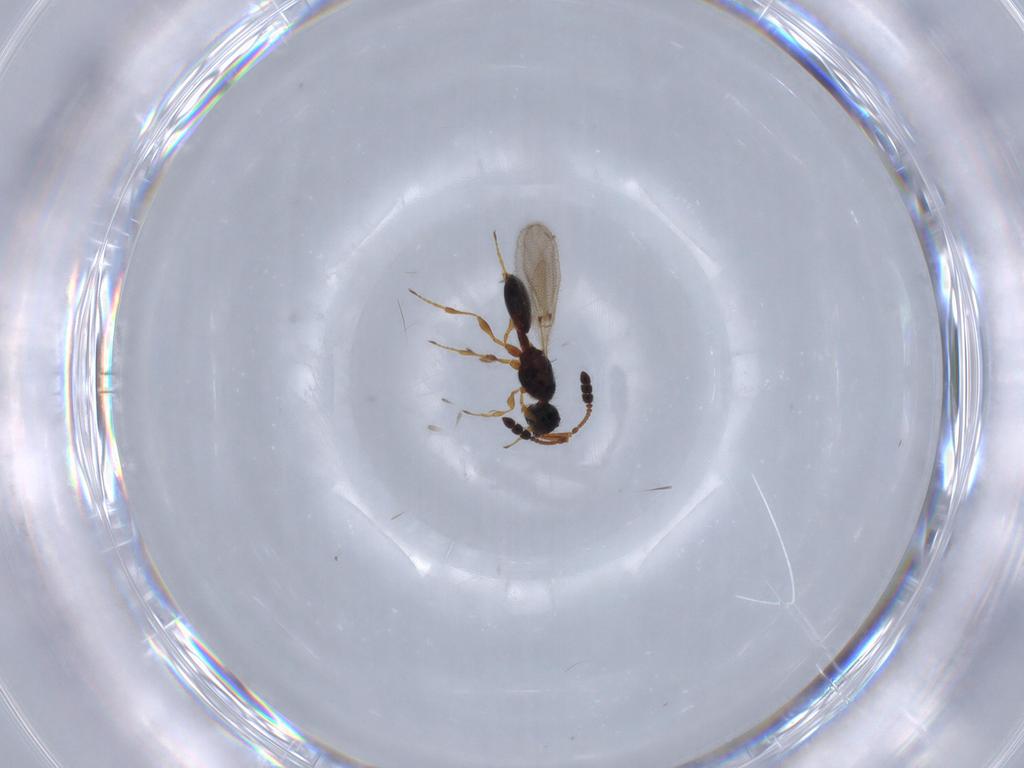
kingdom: Animalia
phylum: Arthropoda
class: Insecta
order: Hymenoptera
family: Diapriidae
